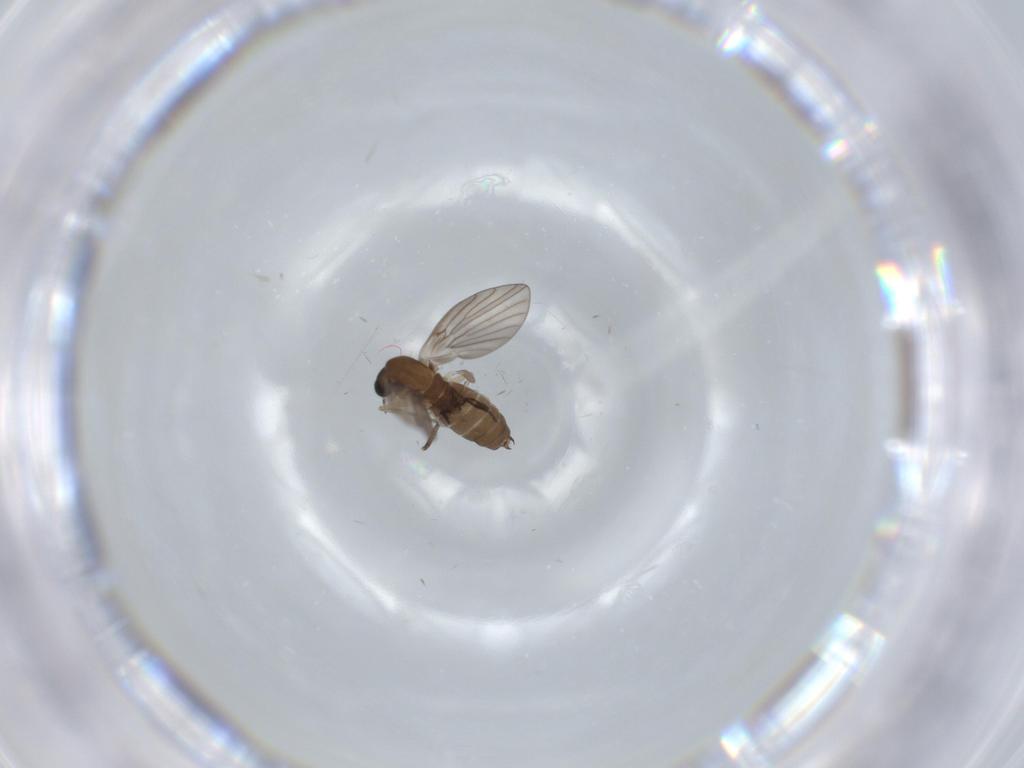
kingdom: Animalia
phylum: Arthropoda
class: Insecta
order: Diptera
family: Psychodidae
